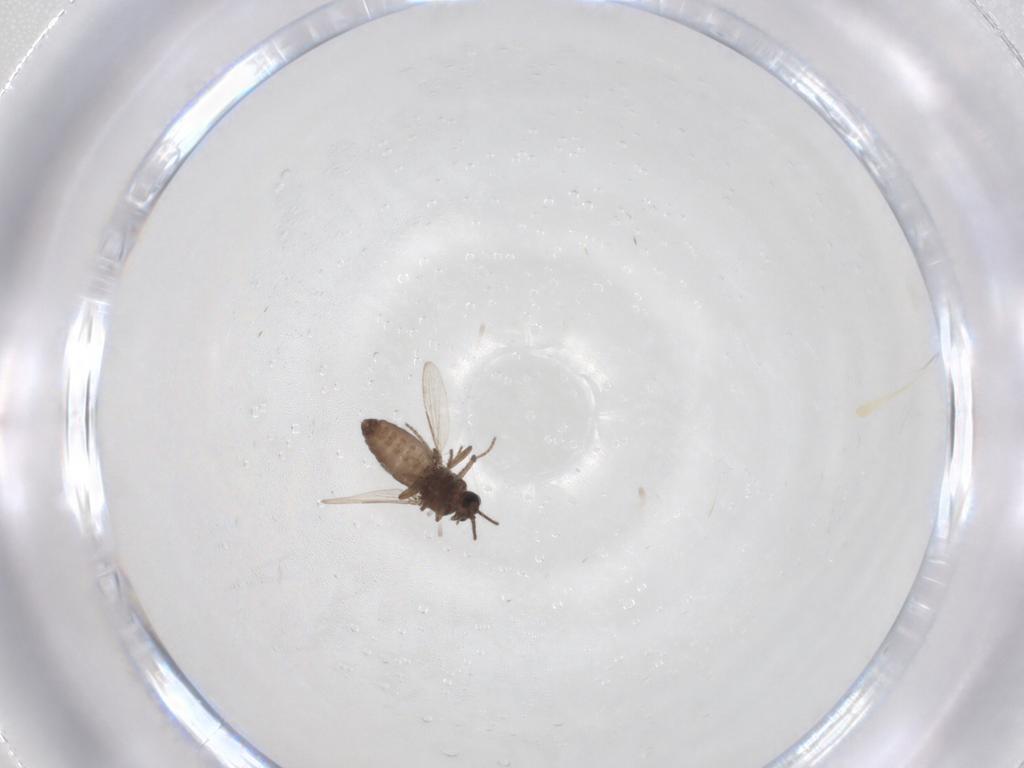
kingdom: Animalia
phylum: Arthropoda
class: Insecta
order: Diptera
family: Ceratopogonidae
